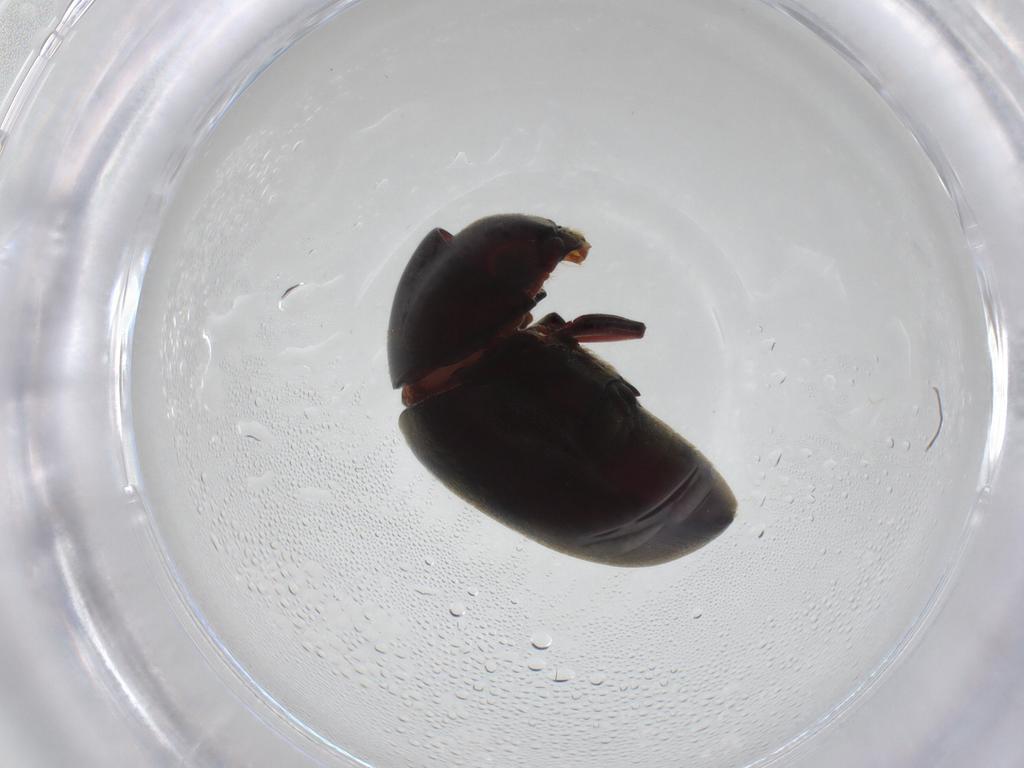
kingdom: Animalia
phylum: Arthropoda
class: Insecta
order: Coleoptera
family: Ptinidae
